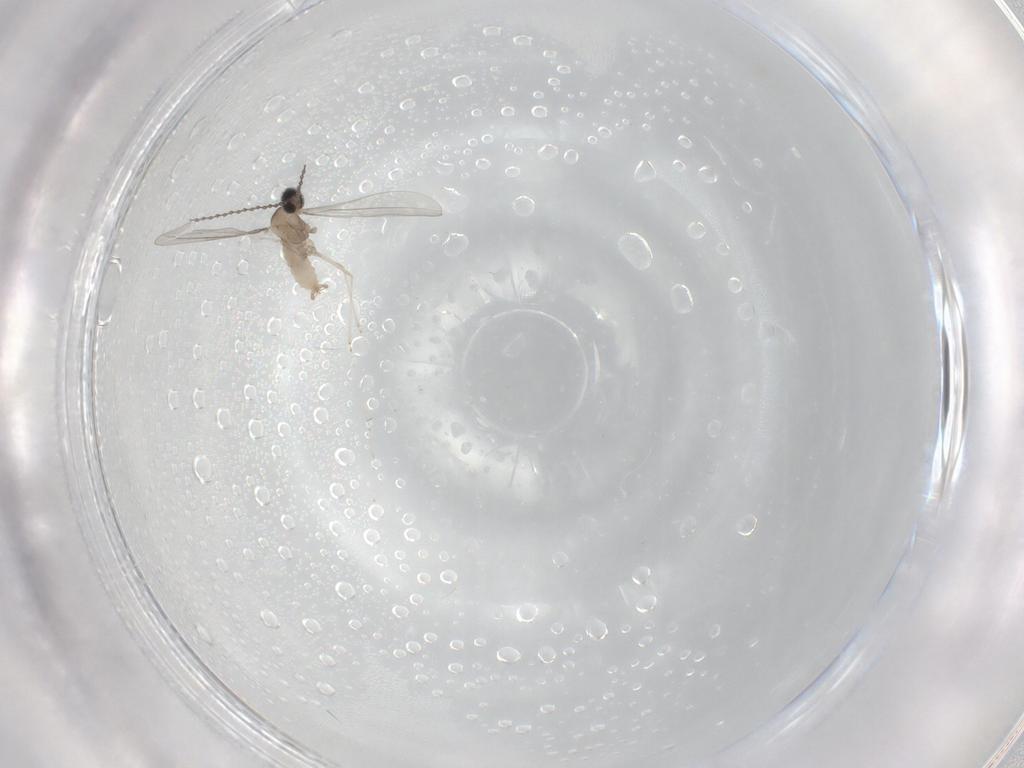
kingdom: Animalia
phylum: Arthropoda
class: Insecta
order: Diptera
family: Cecidomyiidae
